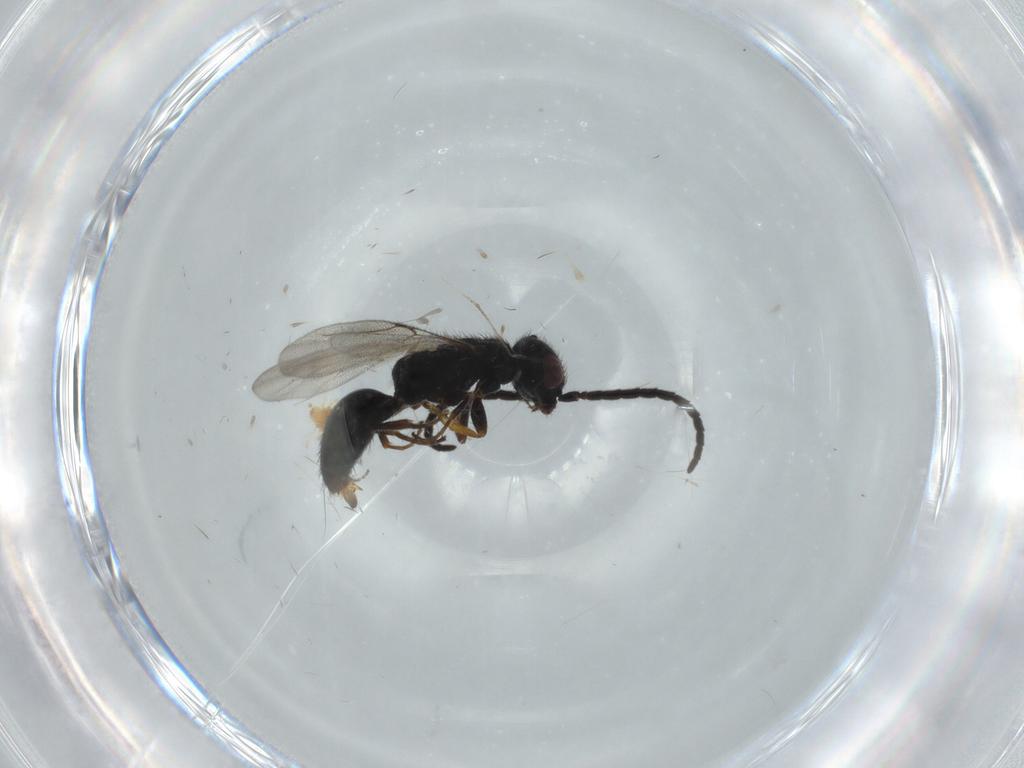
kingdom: Animalia
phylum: Arthropoda
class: Insecta
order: Hymenoptera
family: Bethylidae
